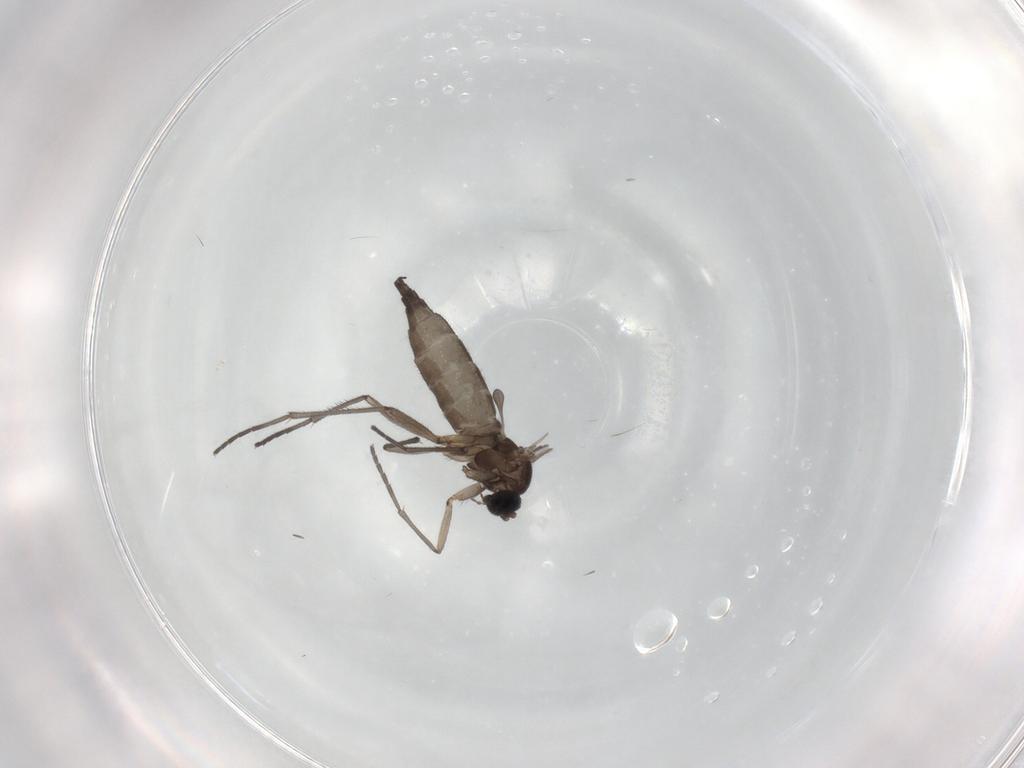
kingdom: Animalia
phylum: Arthropoda
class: Insecta
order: Diptera
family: Sciaridae
